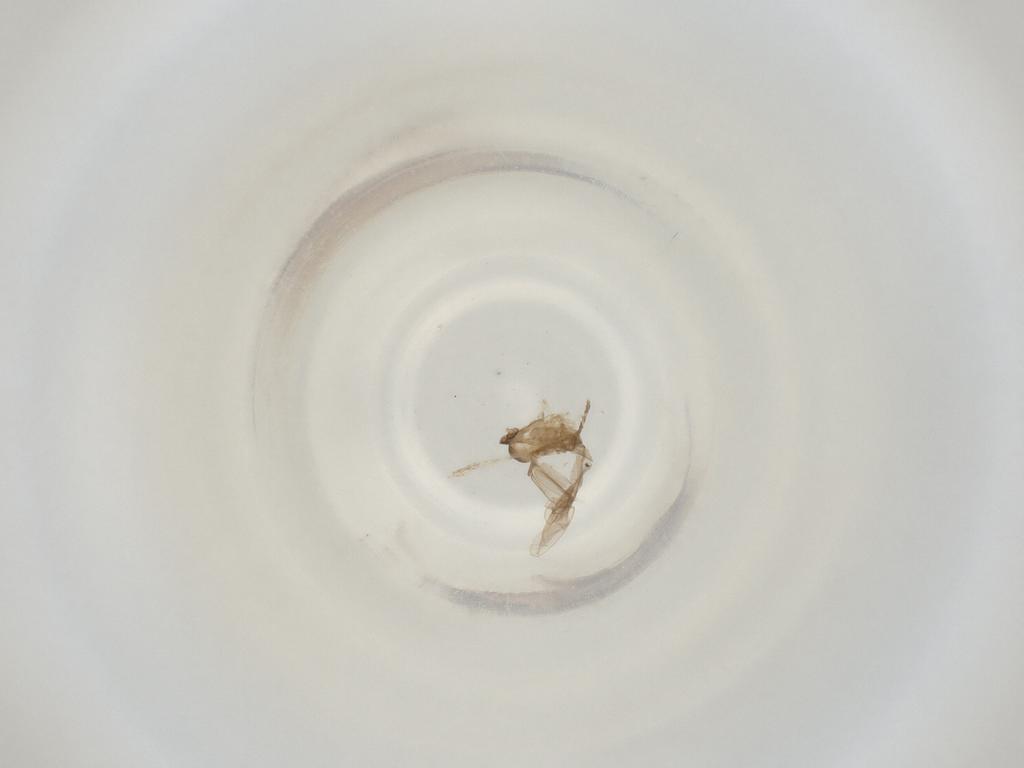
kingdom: Animalia
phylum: Arthropoda
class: Insecta
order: Diptera
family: Cecidomyiidae
